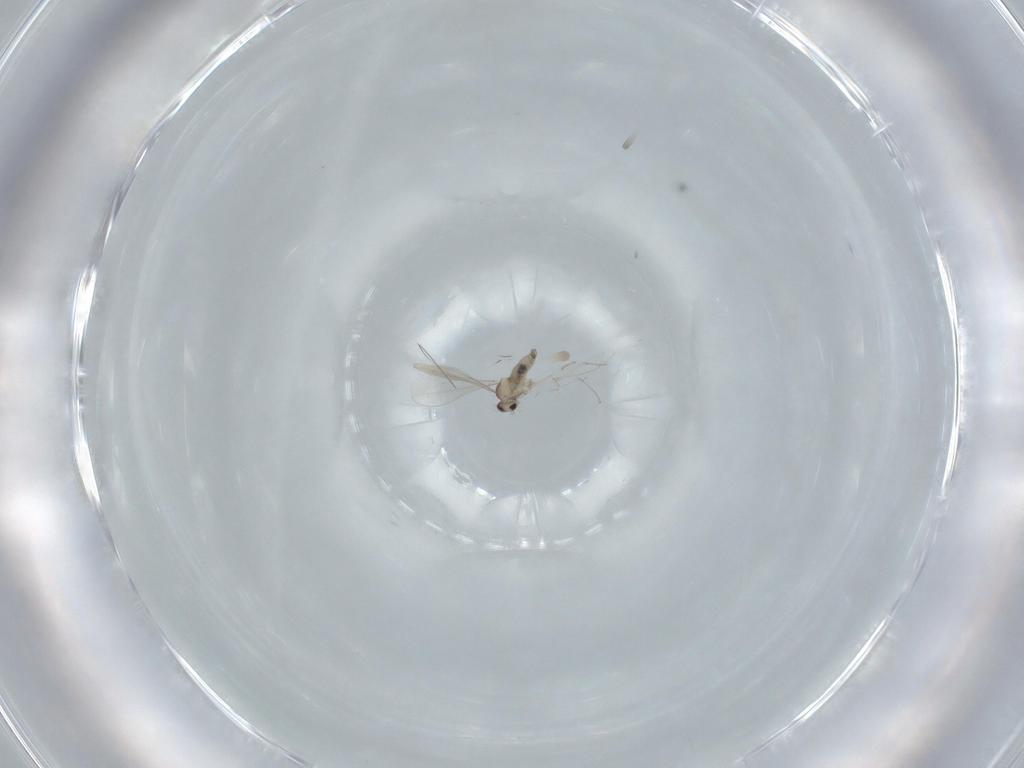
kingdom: Animalia
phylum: Arthropoda
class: Insecta
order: Diptera
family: Cecidomyiidae
